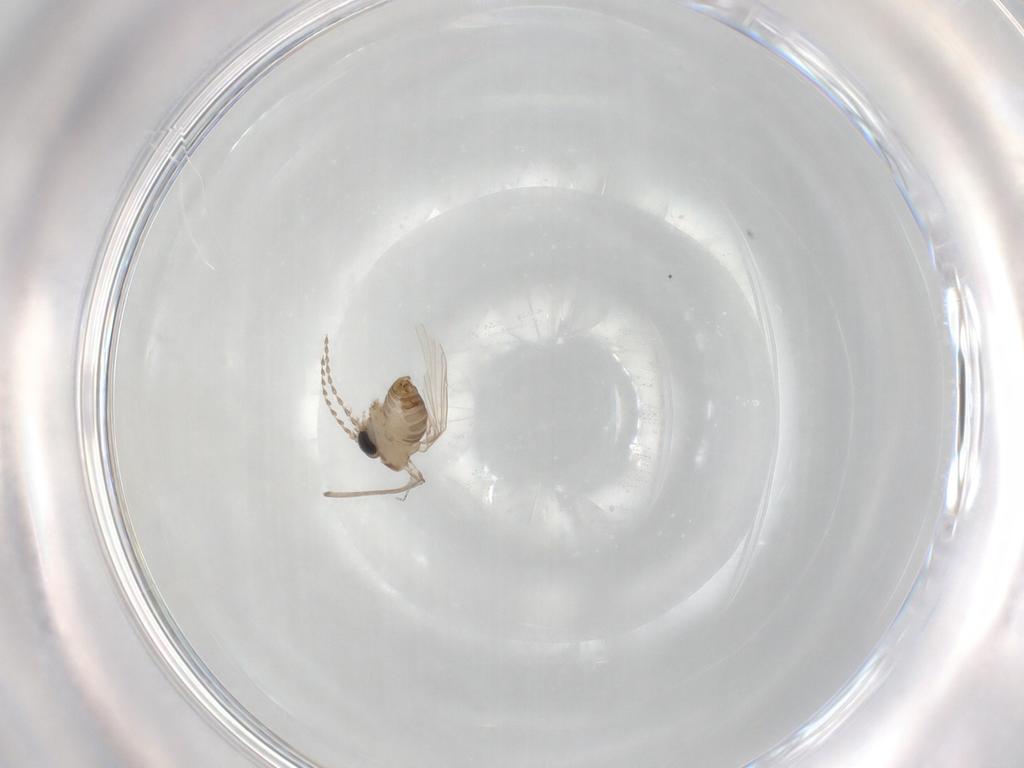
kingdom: Animalia
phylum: Arthropoda
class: Insecta
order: Diptera
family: Psychodidae
